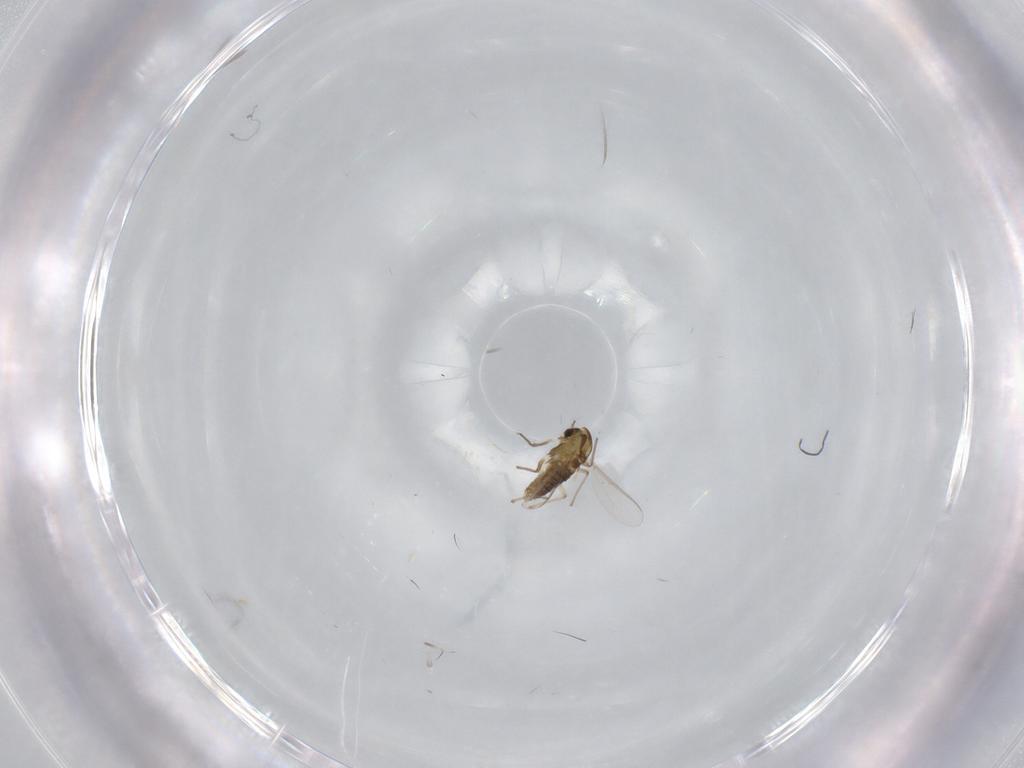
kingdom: Animalia
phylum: Arthropoda
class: Insecta
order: Diptera
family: Chironomidae
